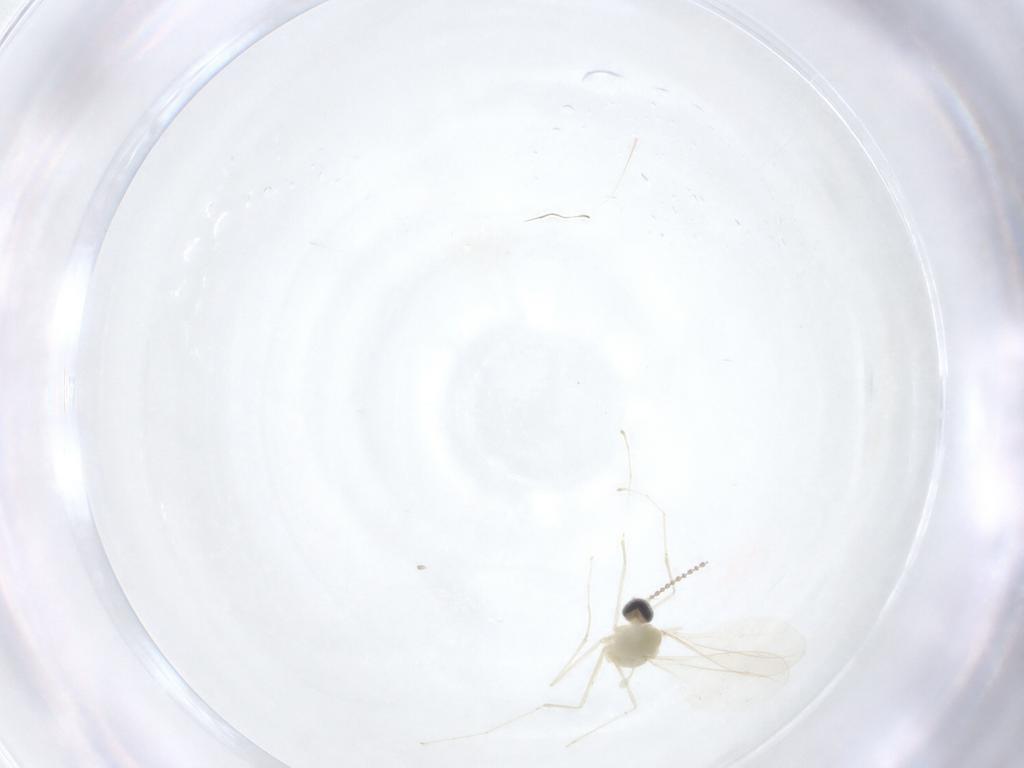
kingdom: Animalia
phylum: Arthropoda
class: Insecta
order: Diptera
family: Cecidomyiidae
